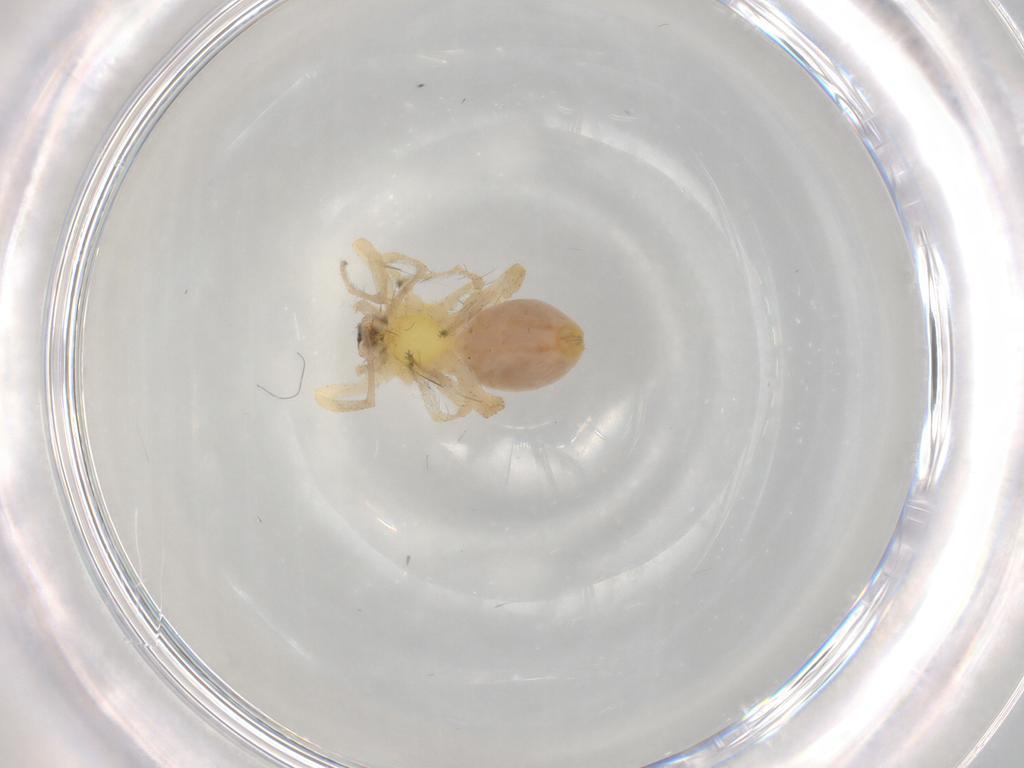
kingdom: Animalia
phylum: Arthropoda
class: Arachnida
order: Araneae
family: Anyphaenidae
